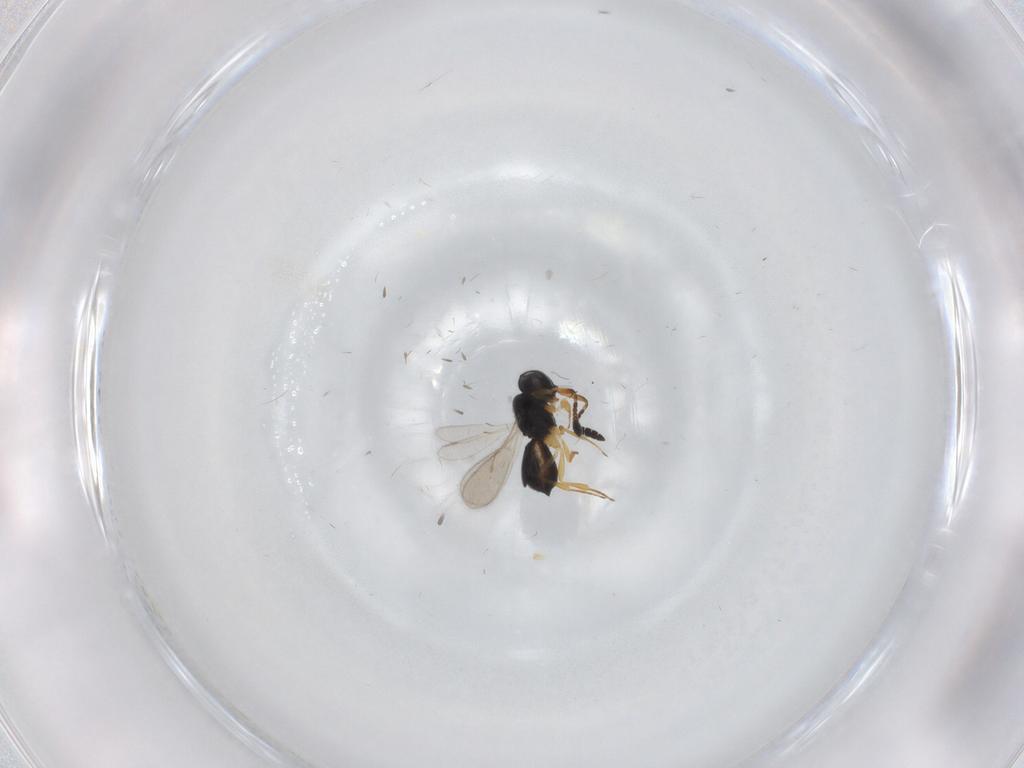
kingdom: Animalia
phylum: Arthropoda
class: Insecta
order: Hymenoptera
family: Scelionidae
